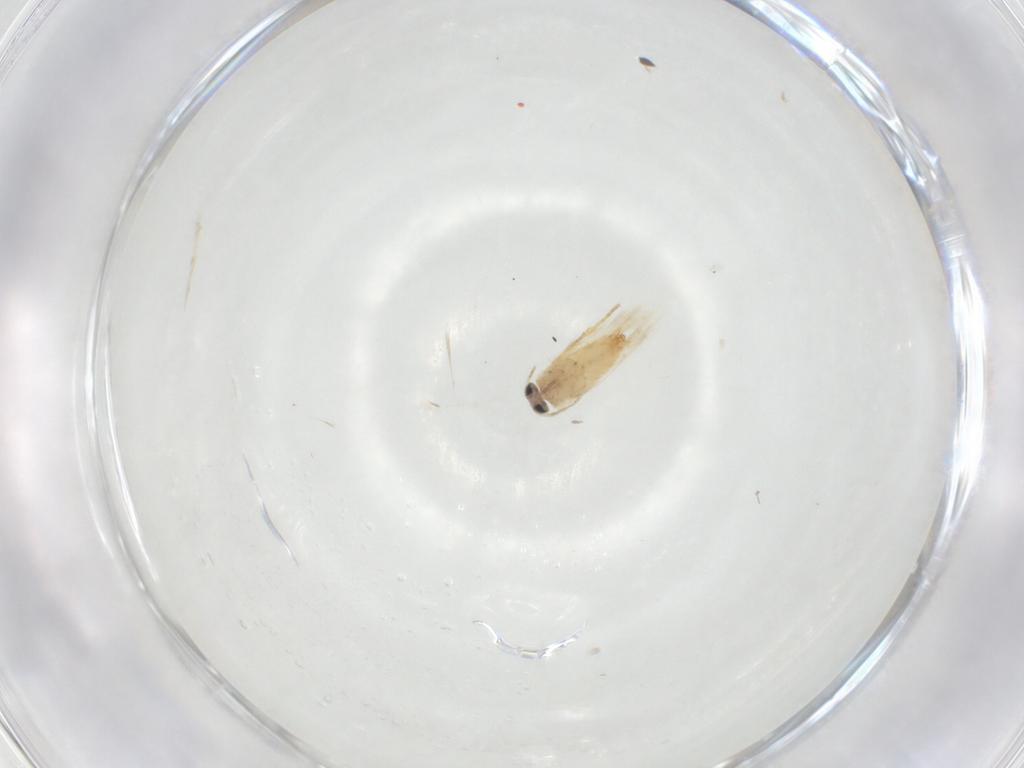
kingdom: Animalia
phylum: Arthropoda
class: Insecta
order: Lepidoptera
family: Crambidae
